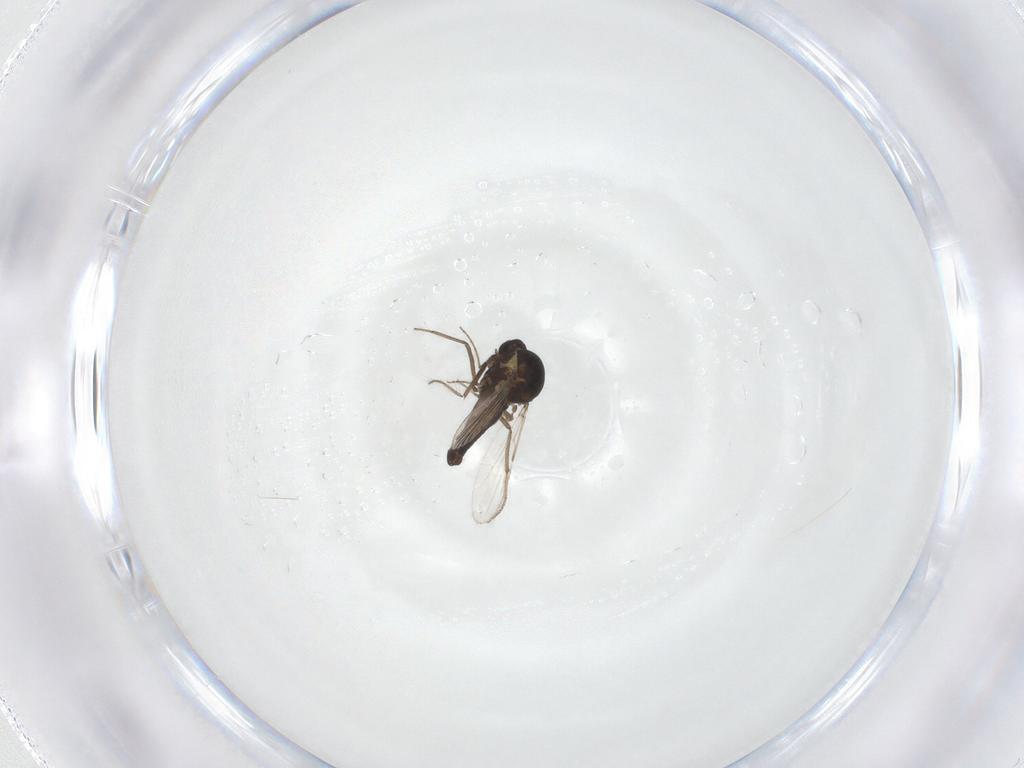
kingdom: Animalia
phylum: Arthropoda
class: Insecta
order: Diptera
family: Ceratopogonidae
